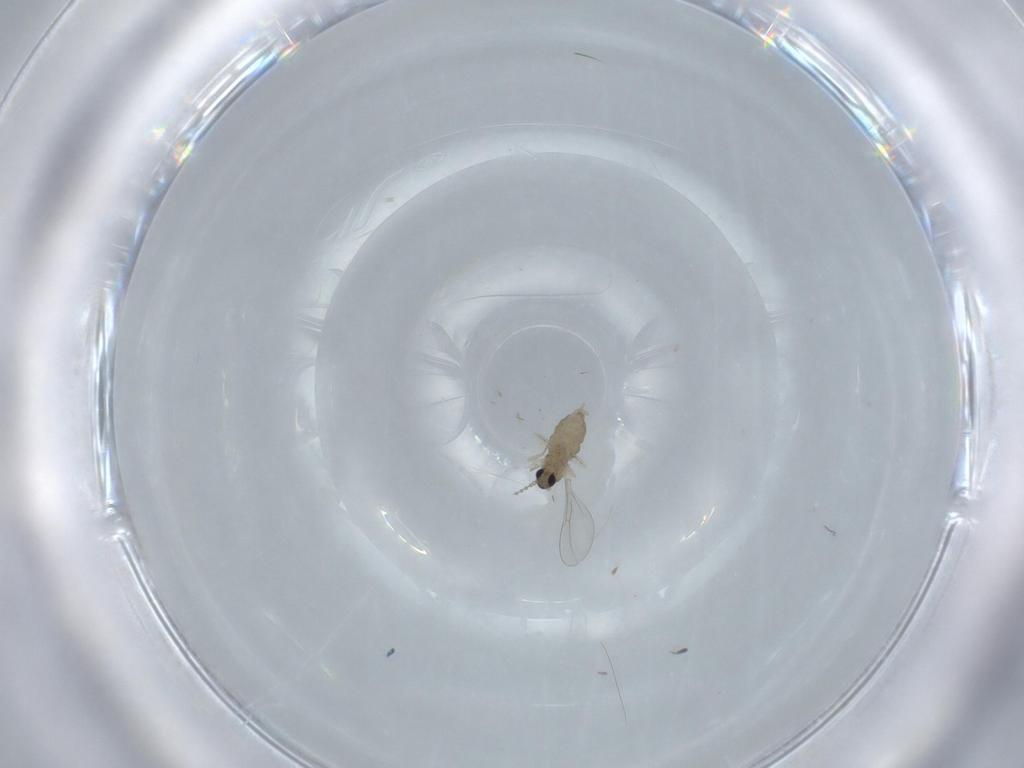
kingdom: Animalia
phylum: Arthropoda
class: Insecta
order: Diptera
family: Cecidomyiidae
